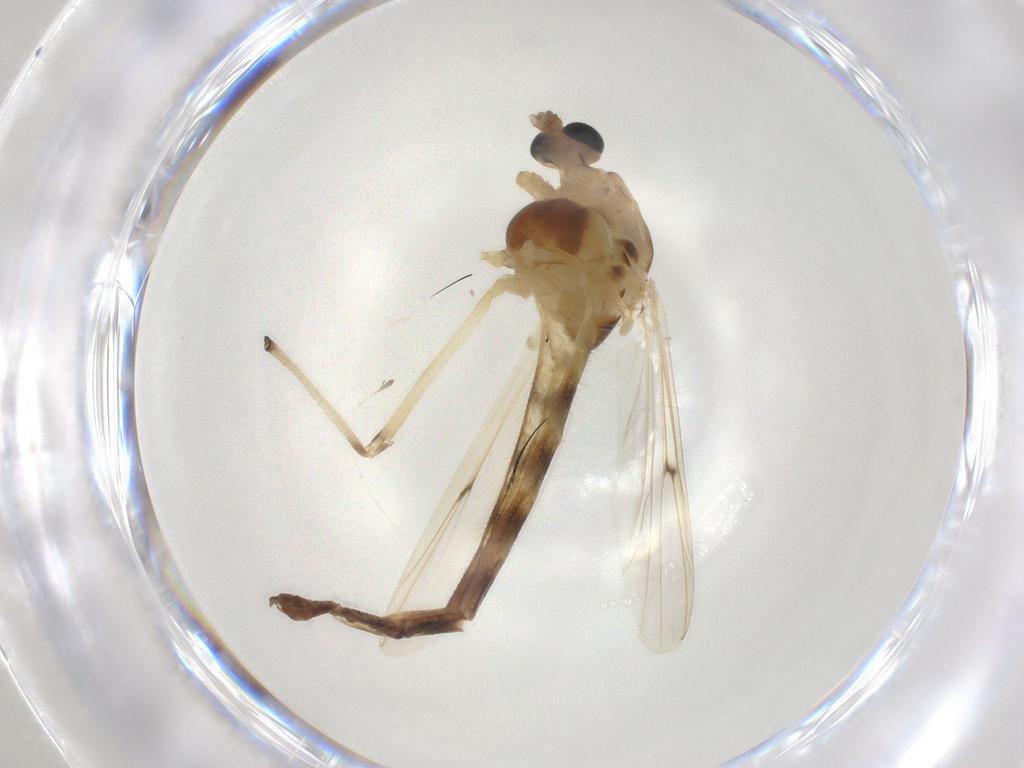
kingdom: Animalia
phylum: Arthropoda
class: Insecta
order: Diptera
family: Chironomidae
